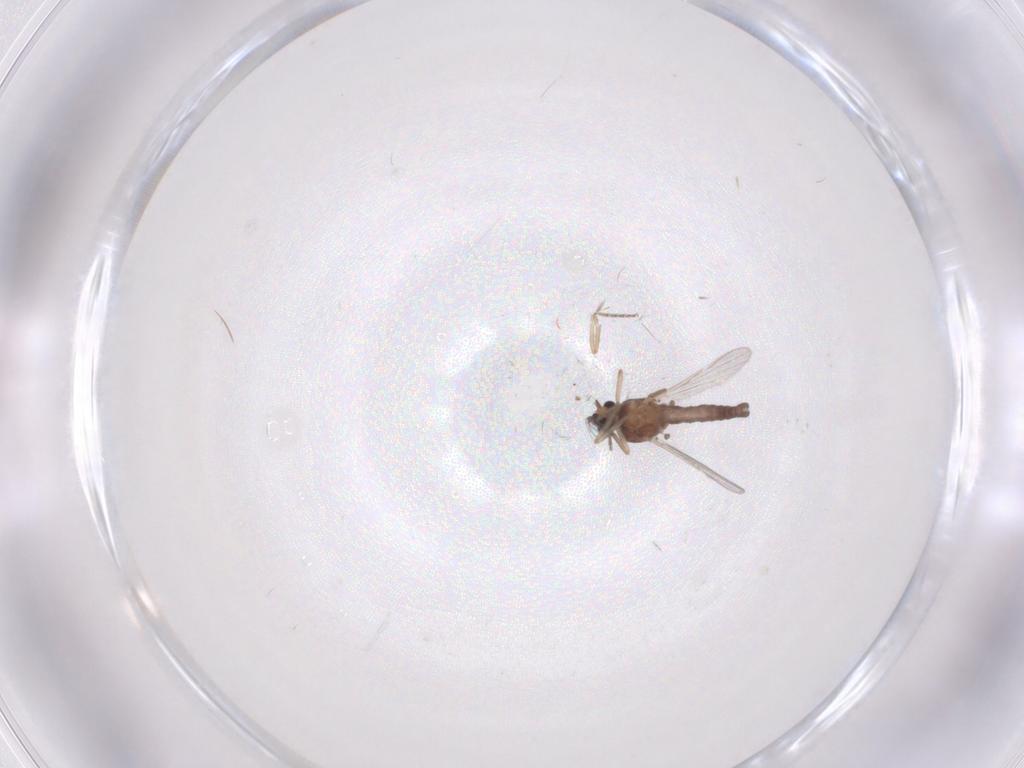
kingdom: Animalia
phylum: Arthropoda
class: Insecta
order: Diptera
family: Ceratopogonidae
